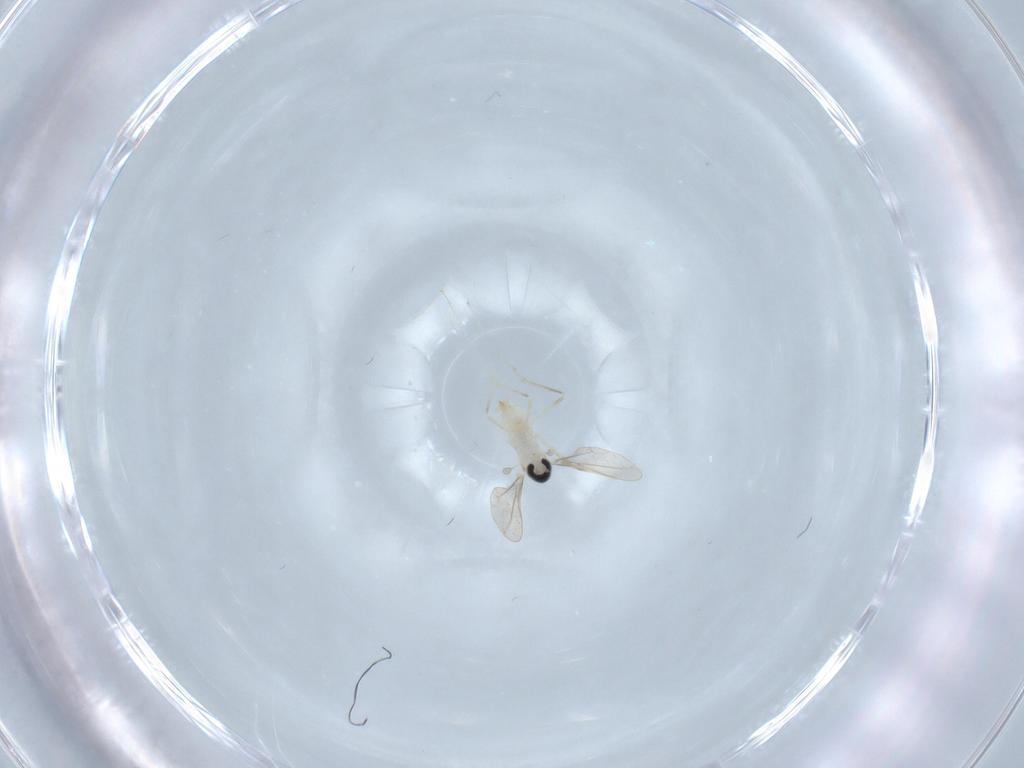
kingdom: Animalia
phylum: Arthropoda
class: Insecta
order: Diptera
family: Cecidomyiidae
